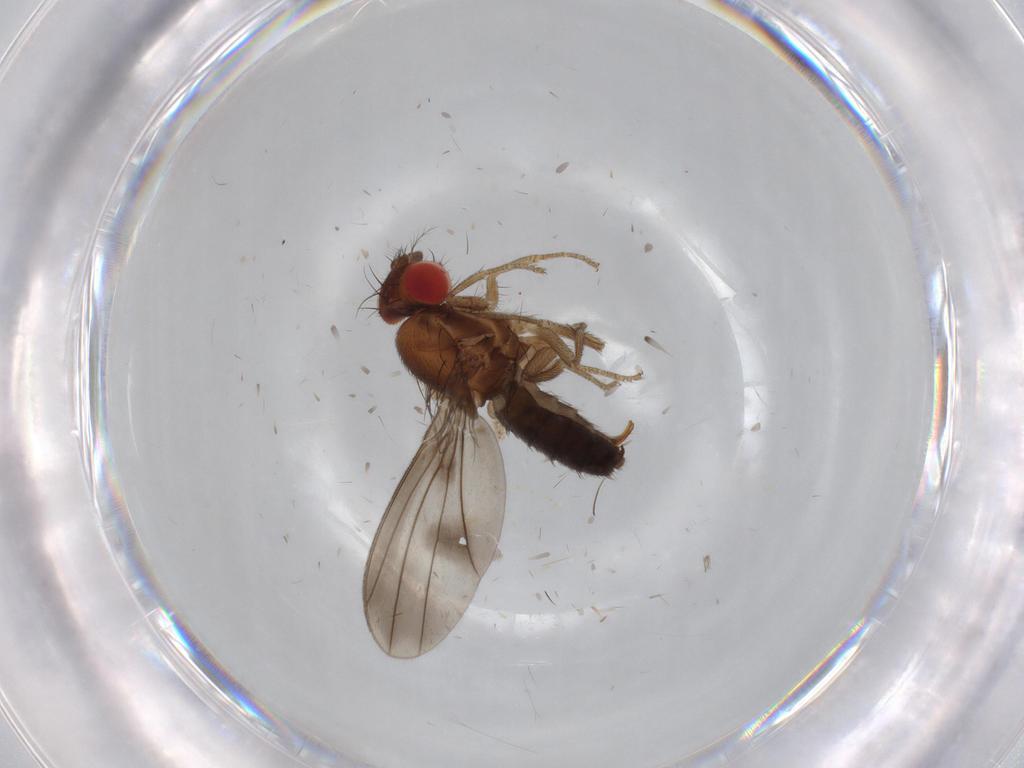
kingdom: Animalia
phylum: Arthropoda
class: Insecta
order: Diptera
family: Drosophilidae
